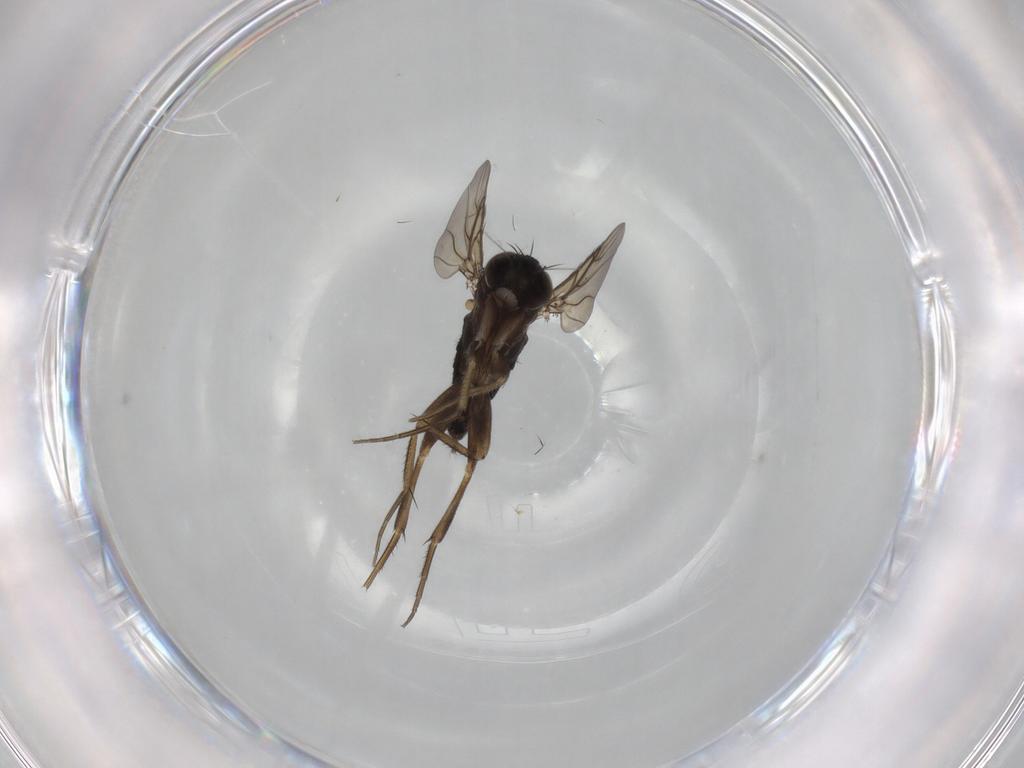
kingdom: Animalia
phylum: Arthropoda
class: Insecta
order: Diptera
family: Phoridae
